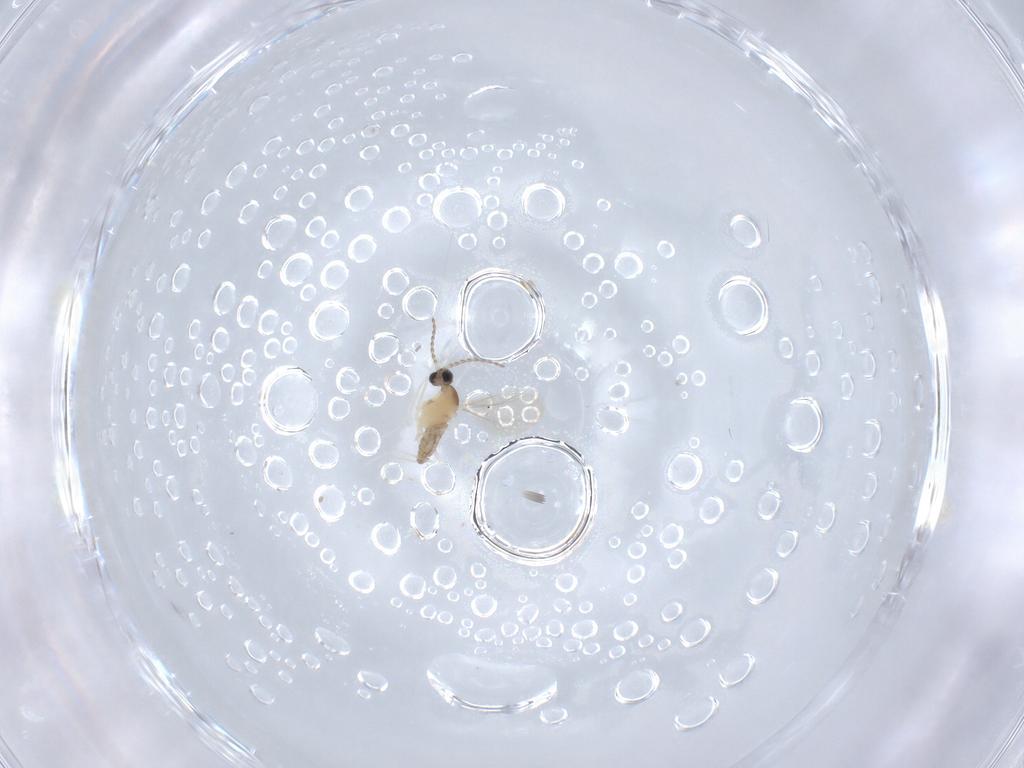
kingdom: Animalia
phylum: Arthropoda
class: Insecta
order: Diptera
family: Cecidomyiidae
